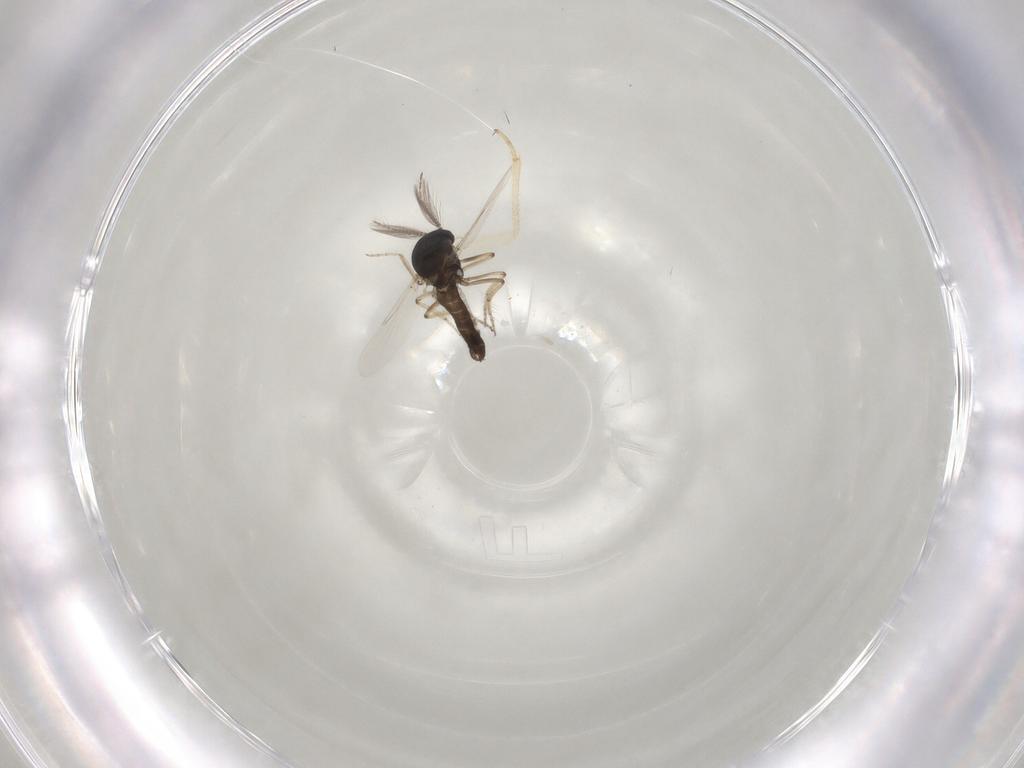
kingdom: Animalia
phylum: Arthropoda
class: Insecta
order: Diptera
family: Ceratopogonidae
